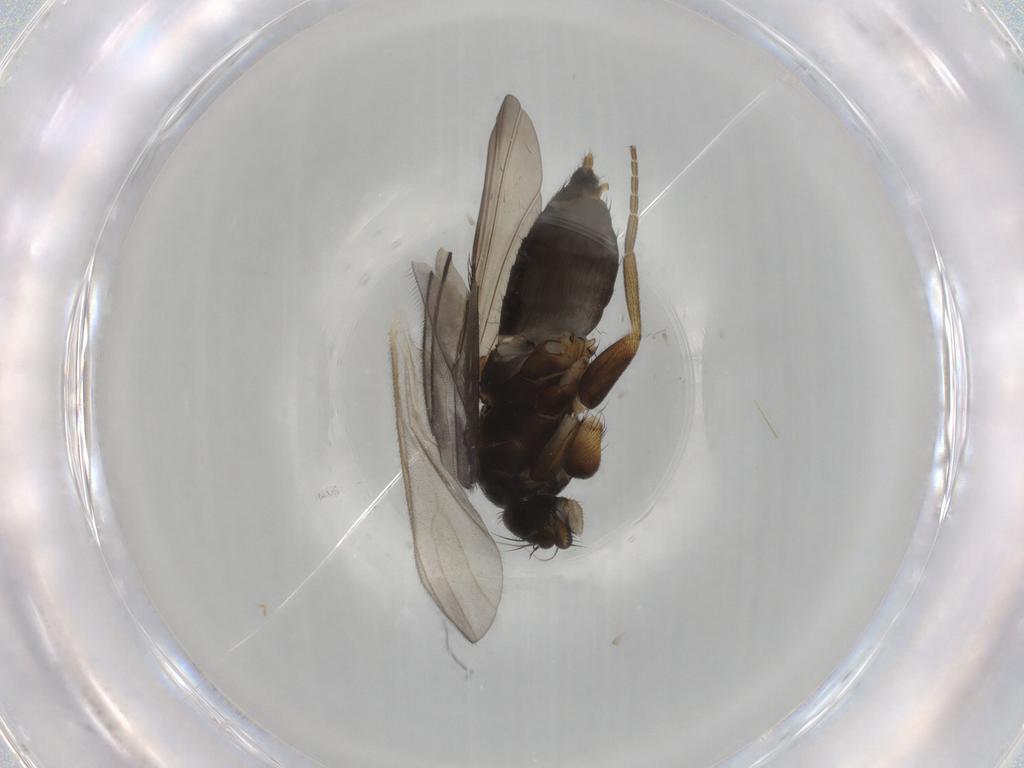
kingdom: Animalia
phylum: Arthropoda
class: Insecta
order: Diptera
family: Phoridae
